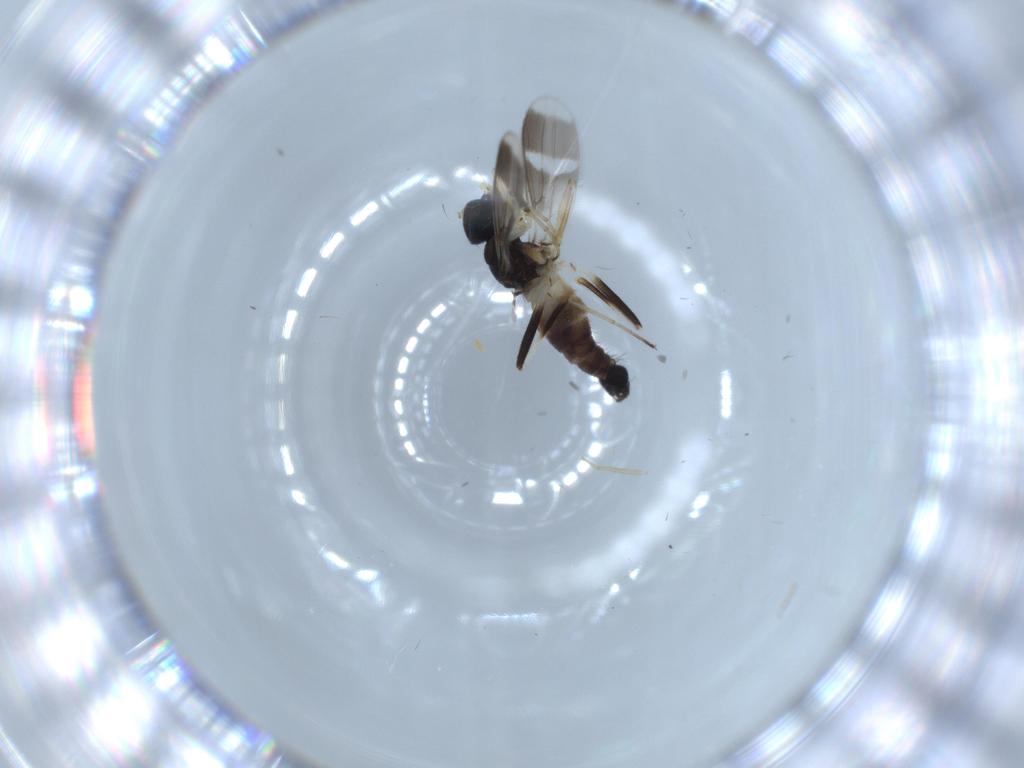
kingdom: Animalia
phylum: Arthropoda
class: Insecta
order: Diptera
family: Hybotidae
